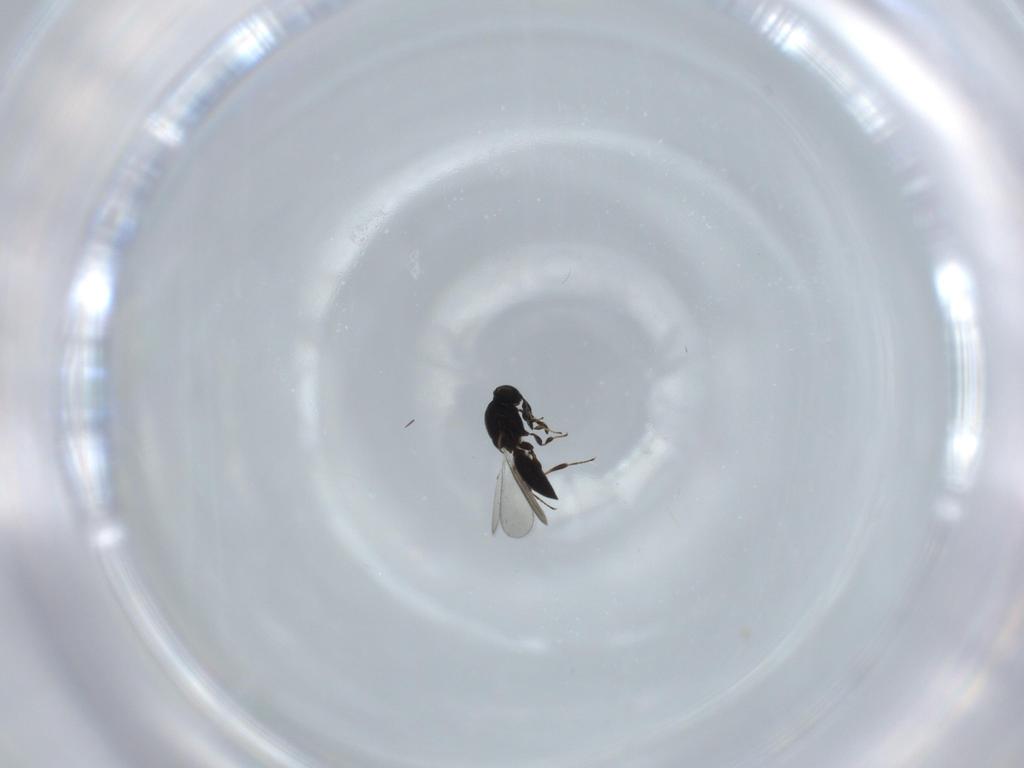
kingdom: Animalia
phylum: Arthropoda
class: Insecta
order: Hymenoptera
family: Platygastridae
